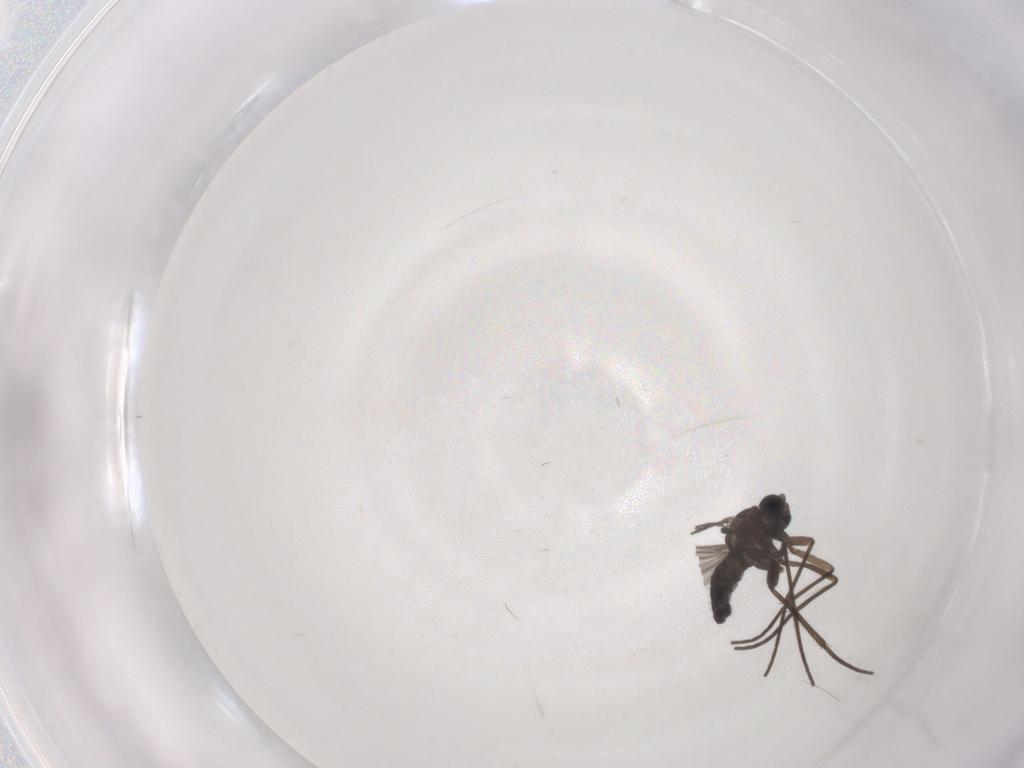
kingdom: Animalia
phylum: Arthropoda
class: Insecta
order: Diptera
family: Sciaridae
